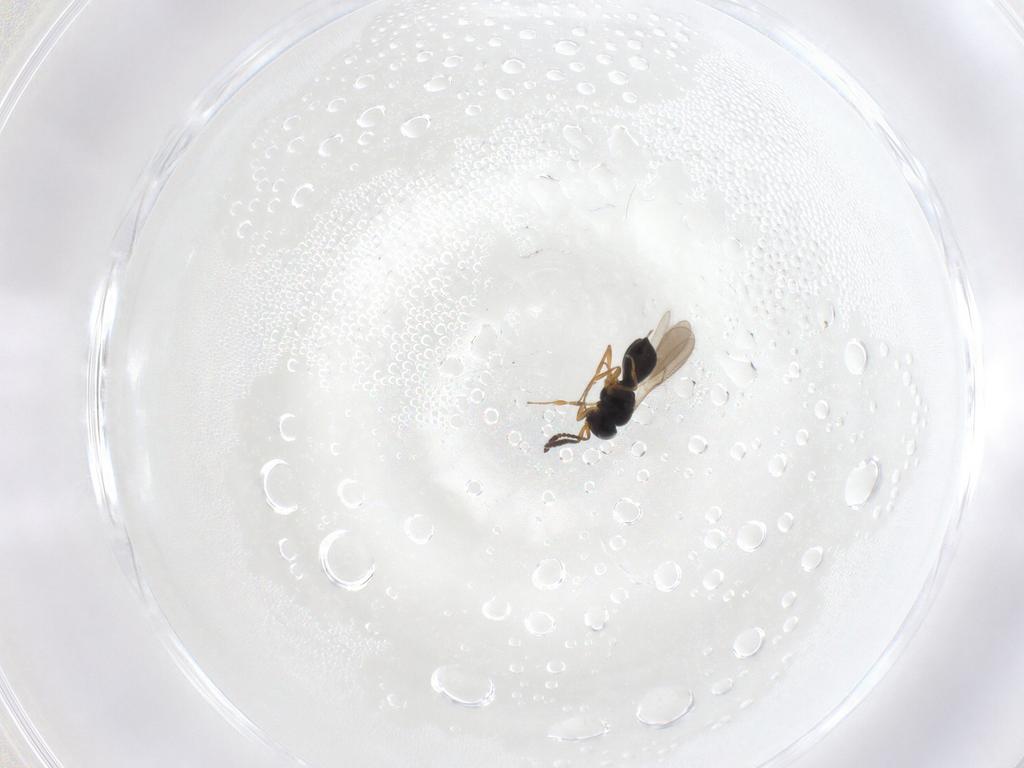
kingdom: Animalia
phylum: Arthropoda
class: Insecta
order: Hymenoptera
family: Scelionidae
